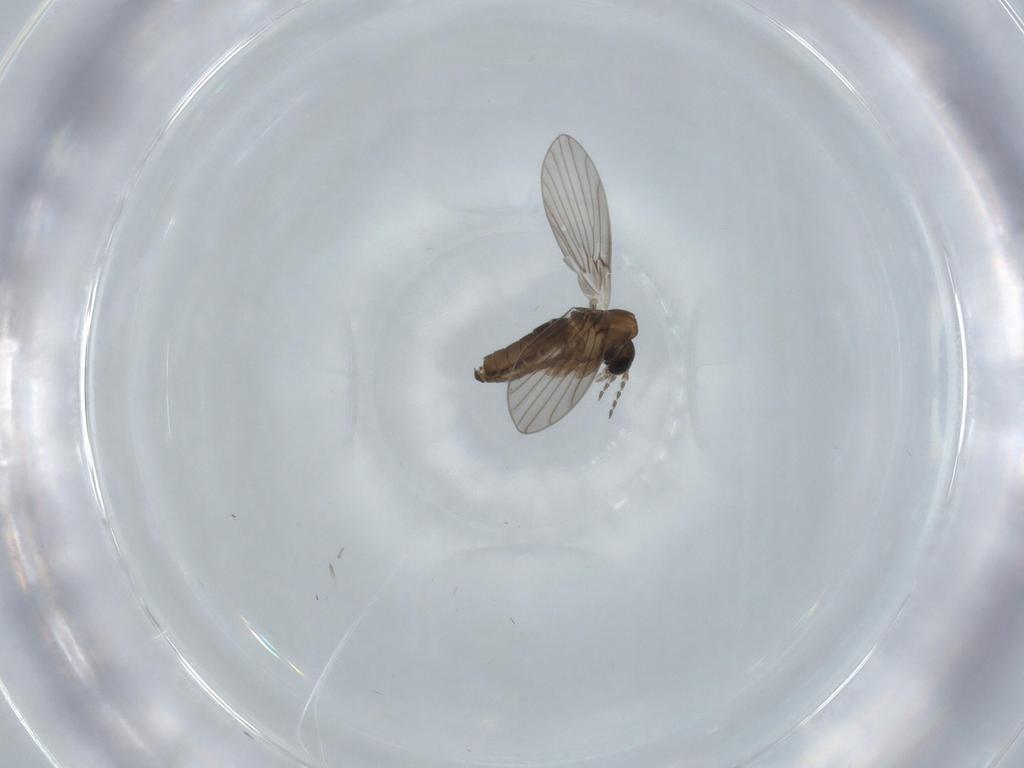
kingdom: Animalia
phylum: Arthropoda
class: Insecta
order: Diptera
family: Psychodidae
